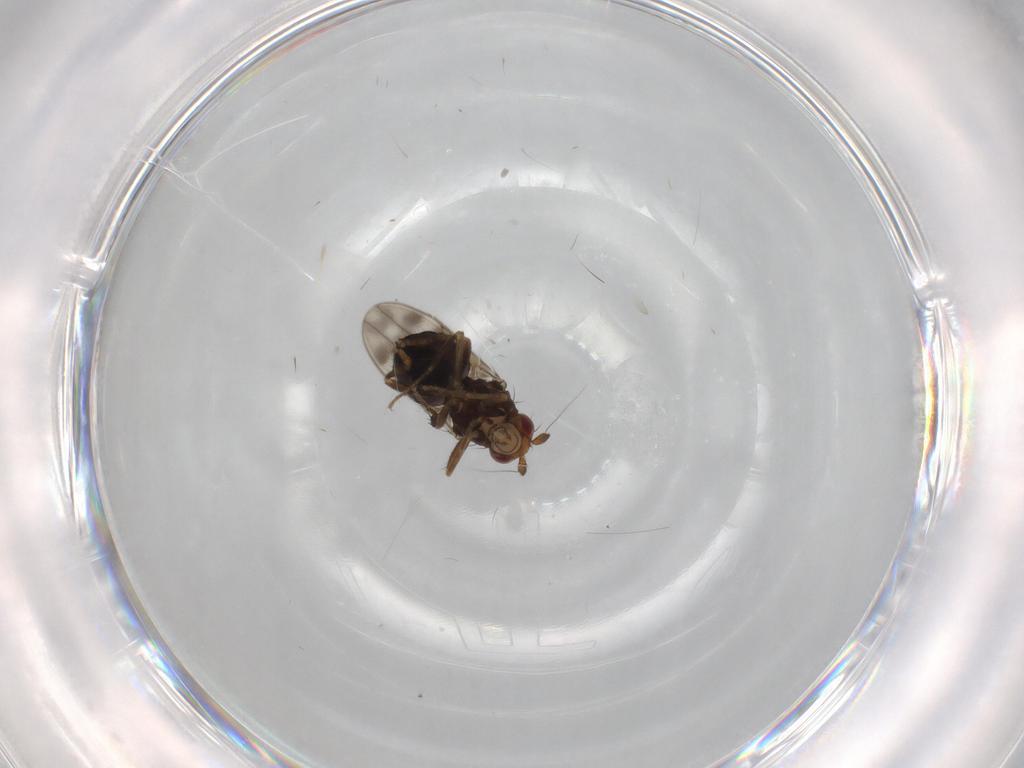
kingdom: Animalia
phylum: Arthropoda
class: Insecta
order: Diptera
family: Sphaeroceridae
